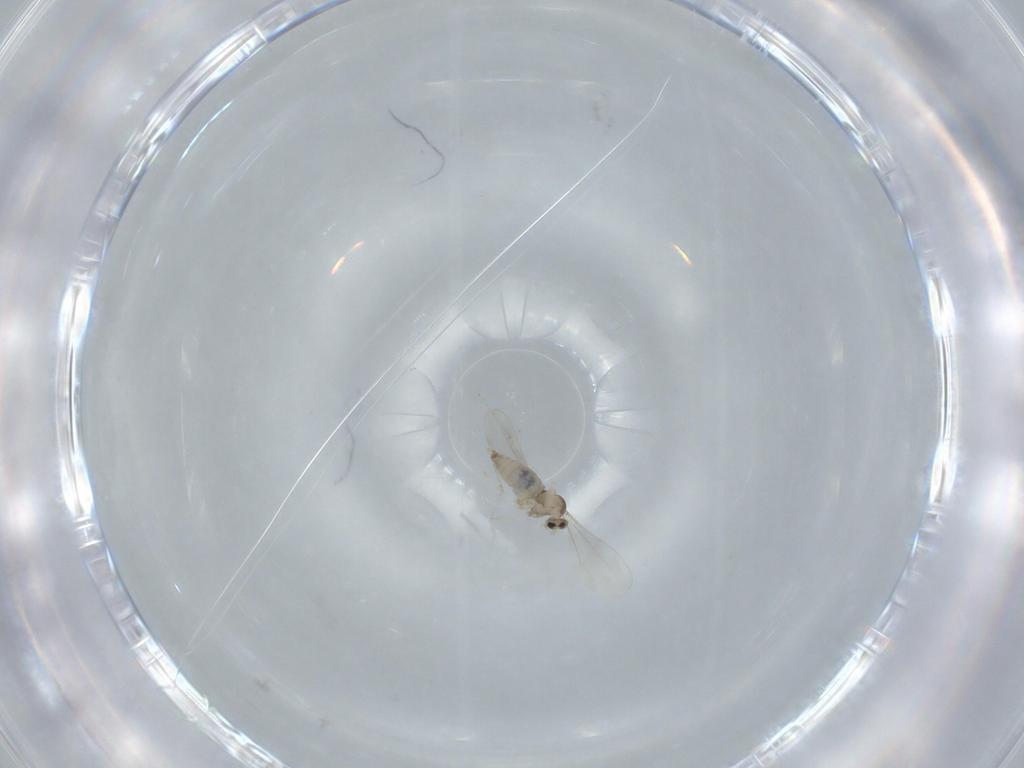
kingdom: Animalia
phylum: Arthropoda
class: Insecta
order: Diptera
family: Cecidomyiidae
